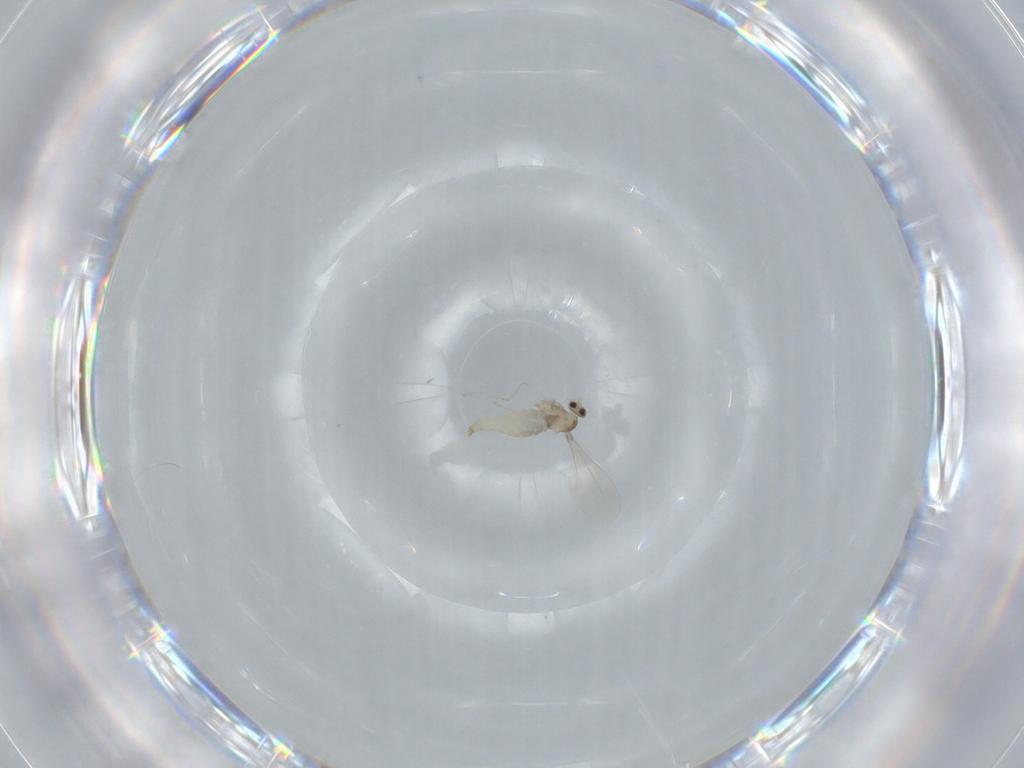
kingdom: Animalia
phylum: Arthropoda
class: Insecta
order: Diptera
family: Cecidomyiidae
